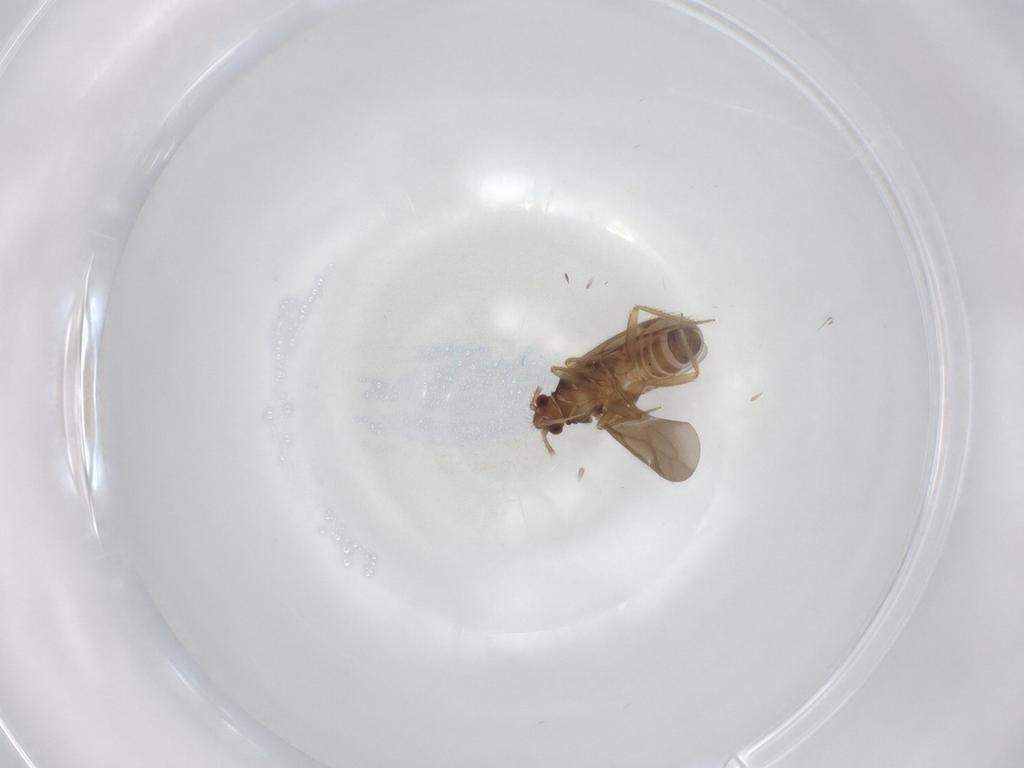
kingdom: Animalia
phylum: Arthropoda
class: Insecta
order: Hemiptera
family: Ceratocombidae
